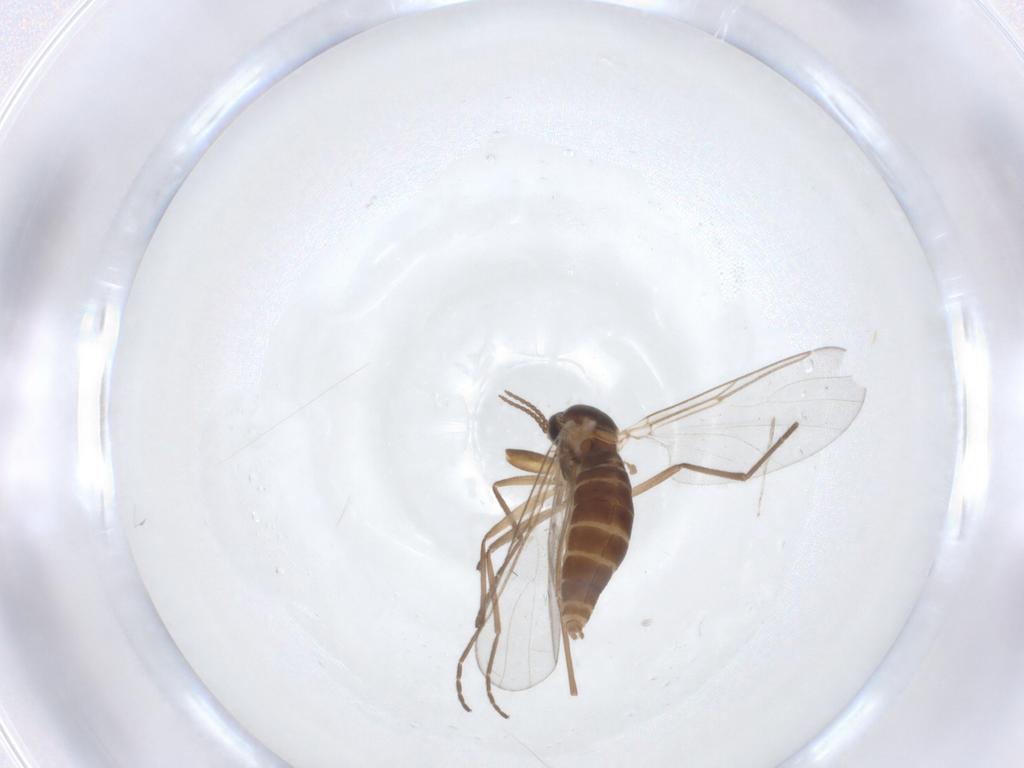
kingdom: Animalia
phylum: Arthropoda
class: Insecta
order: Diptera
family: Cecidomyiidae
